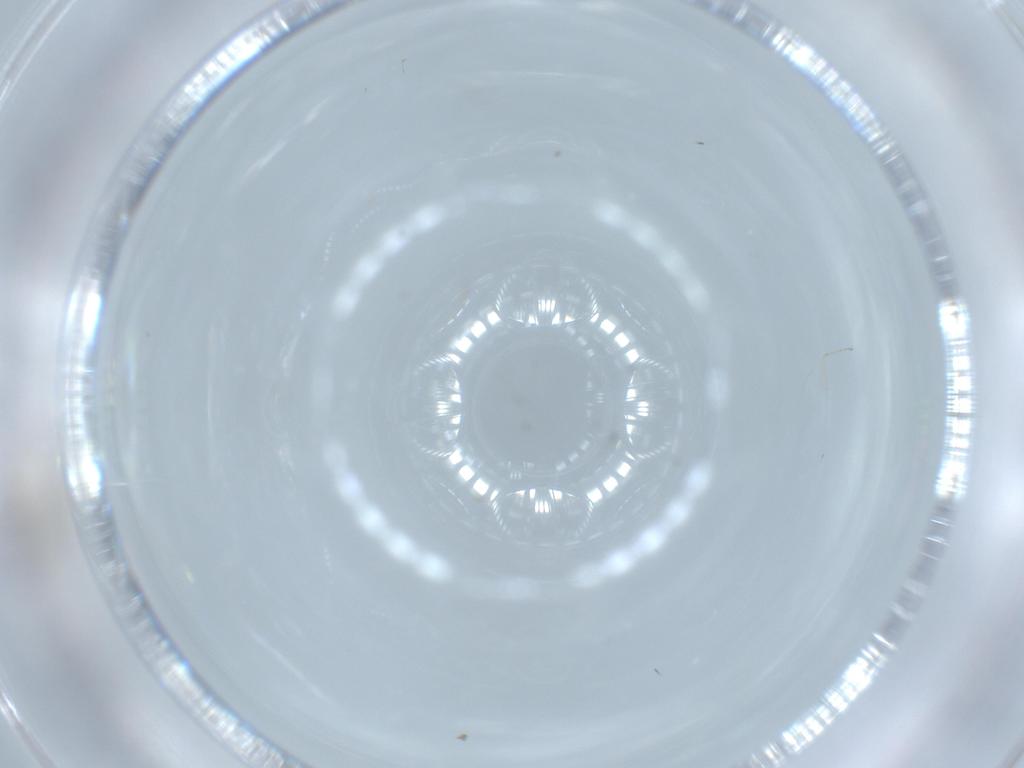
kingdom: Animalia
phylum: Arthropoda
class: Insecta
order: Diptera
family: Cecidomyiidae
